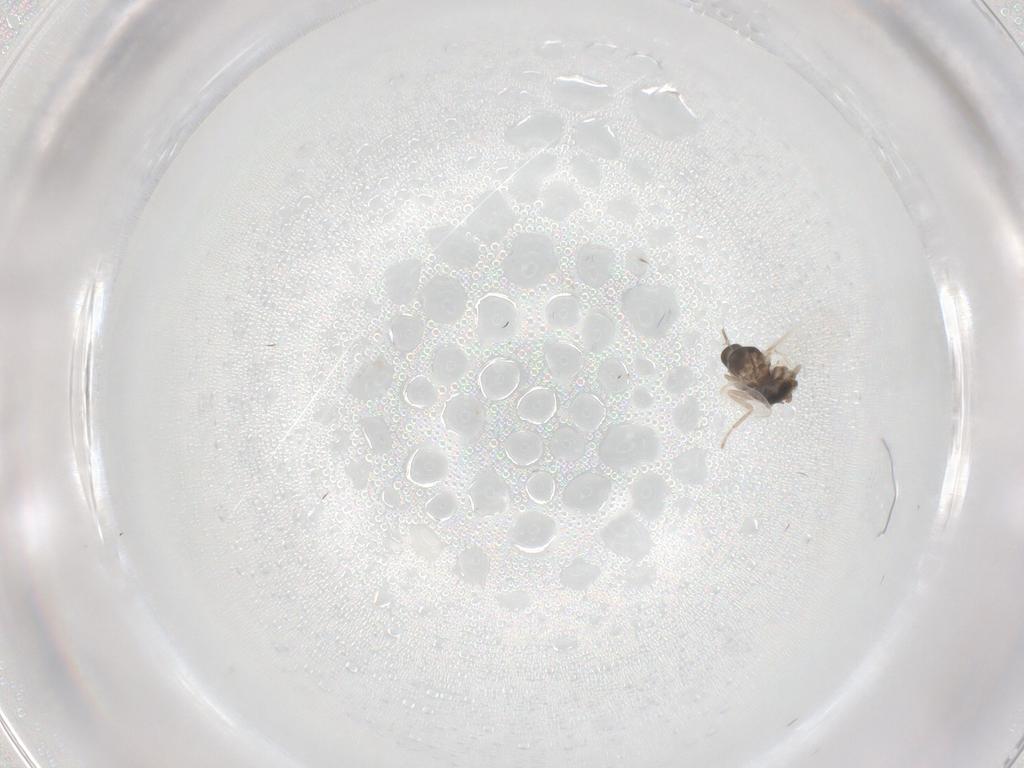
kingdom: Animalia
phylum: Arthropoda
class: Insecta
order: Diptera
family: Cecidomyiidae
